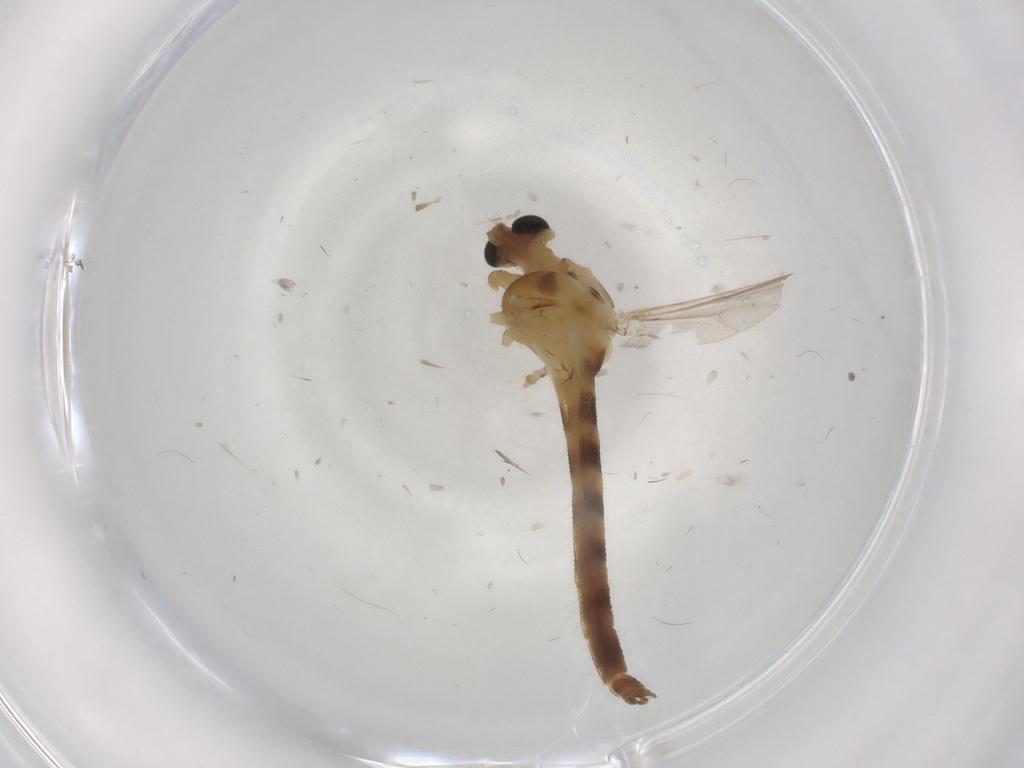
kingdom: Animalia
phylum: Arthropoda
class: Insecta
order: Diptera
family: Chironomidae
